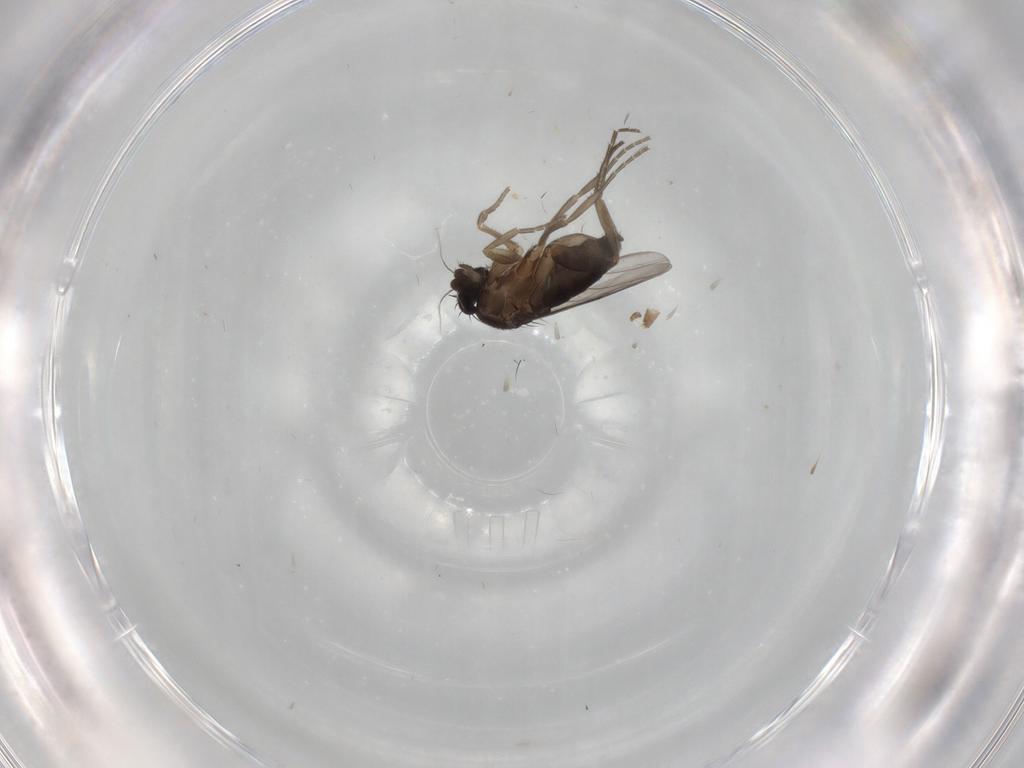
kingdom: Animalia
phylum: Arthropoda
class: Insecta
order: Diptera
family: Phoridae
